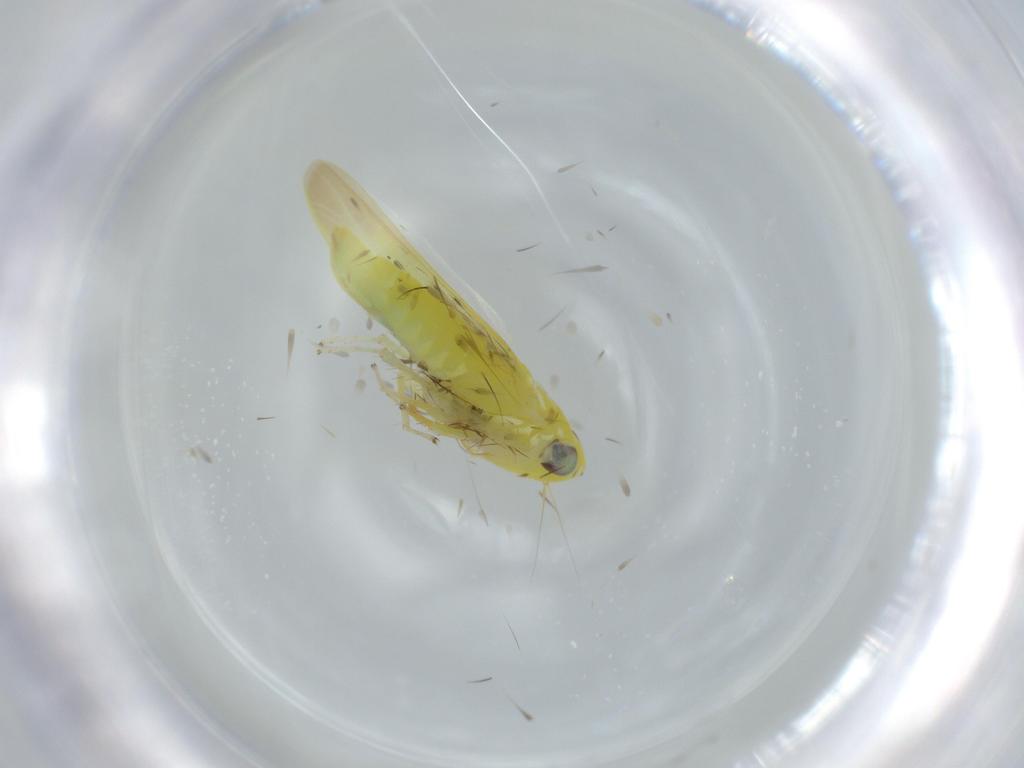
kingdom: Animalia
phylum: Arthropoda
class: Insecta
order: Hemiptera
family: Cicadellidae
